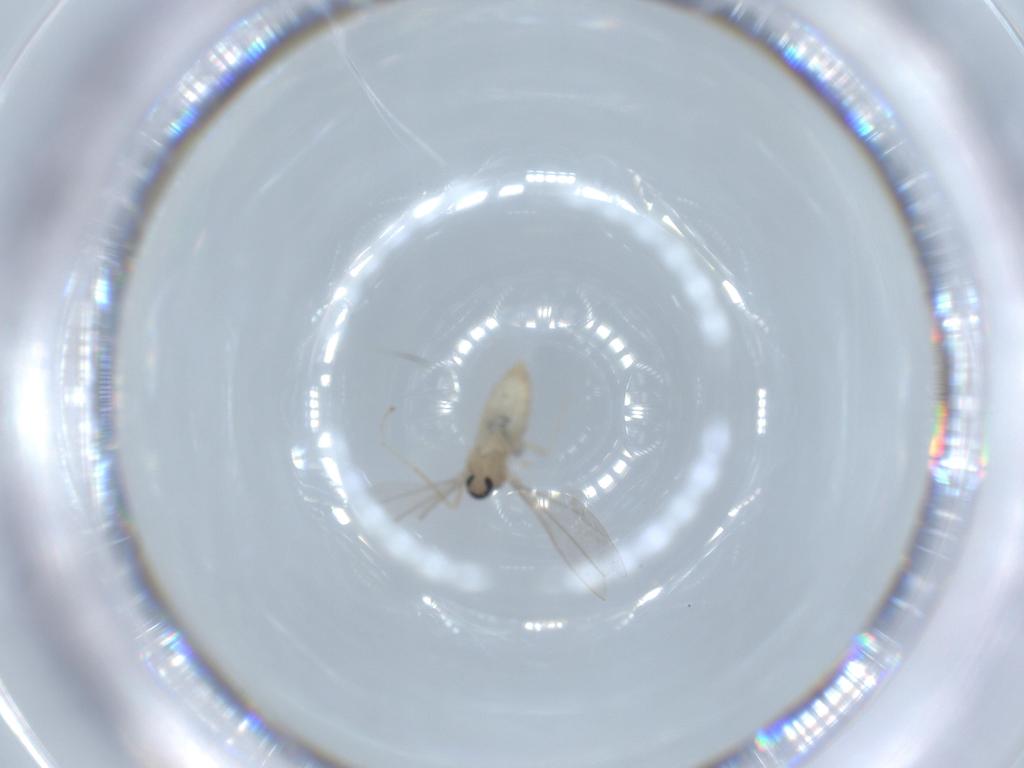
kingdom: Animalia
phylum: Arthropoda
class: Insecta
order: Diptera
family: Cecidomyiidae
